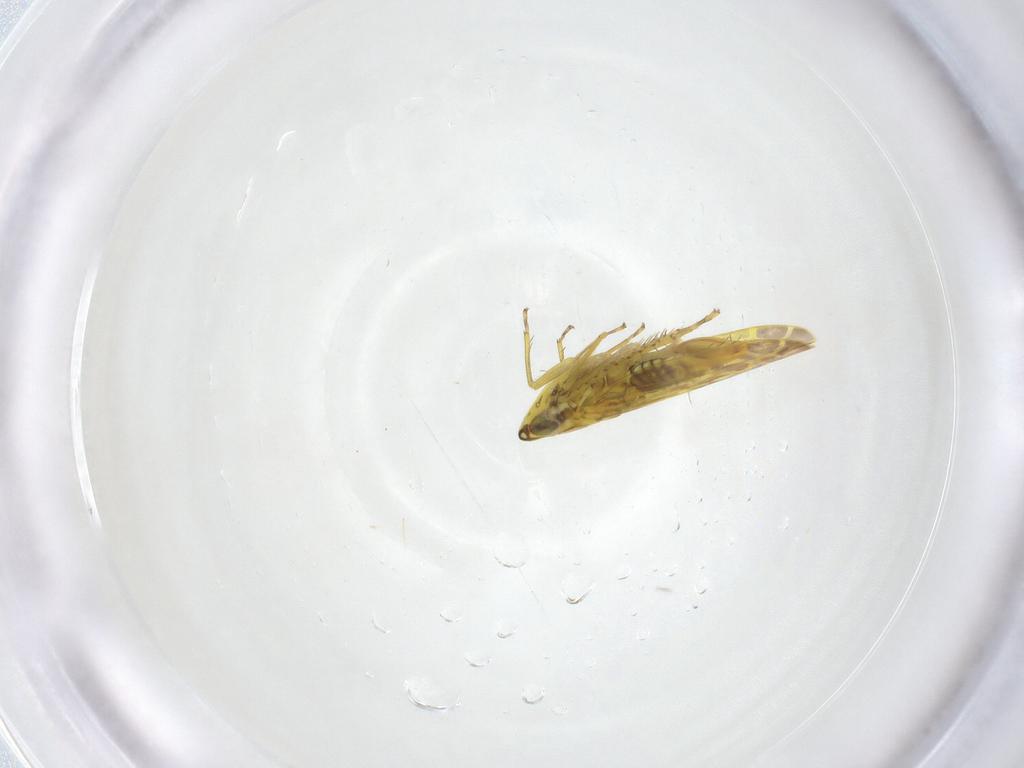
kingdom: Animalia
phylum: Arthropoda
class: Insecta
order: Hemiptera
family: Cicadellidae
